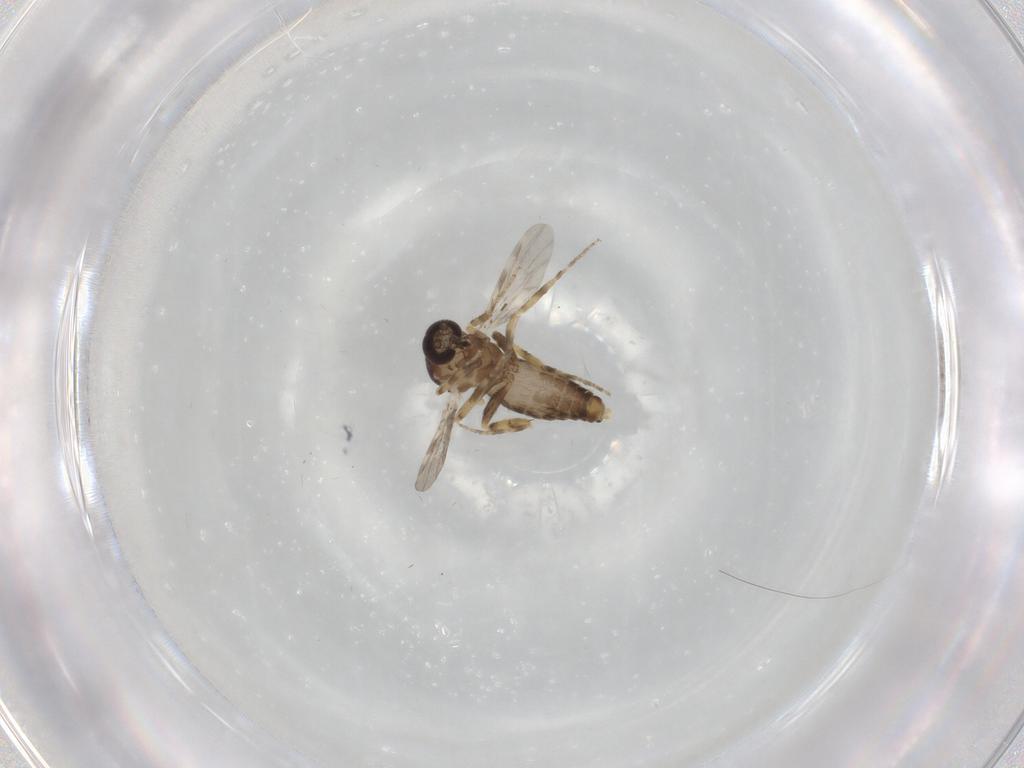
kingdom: Animalia
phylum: Arthropoda
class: Insecta
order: Diptera
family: Ceratopogonidae
